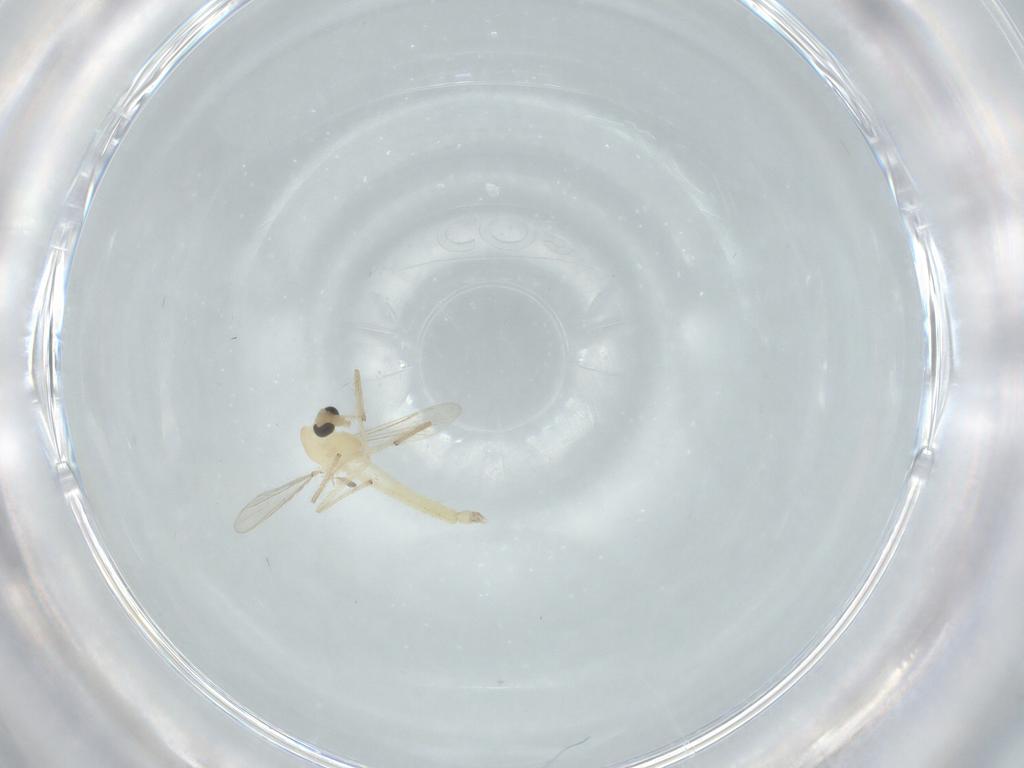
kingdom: Animalia
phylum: Arthropoda
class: Insecta
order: Diptera
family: Chironomidae
